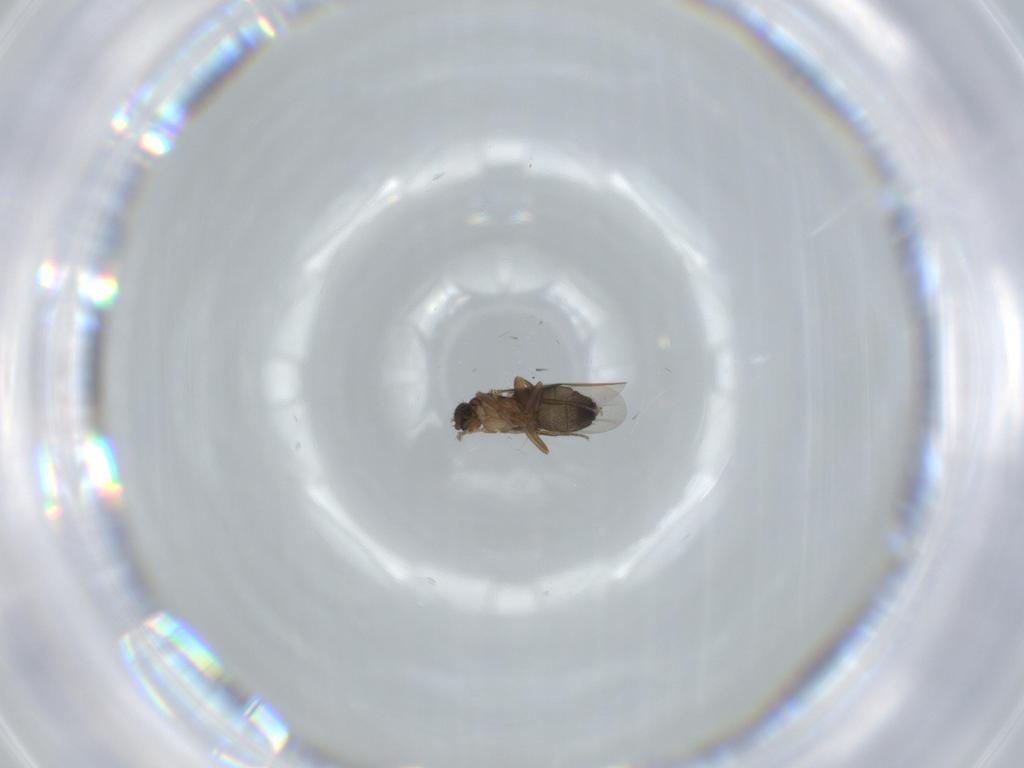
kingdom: Animalia
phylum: Arthropoda
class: Insecta
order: Diptera
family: Phoridae
